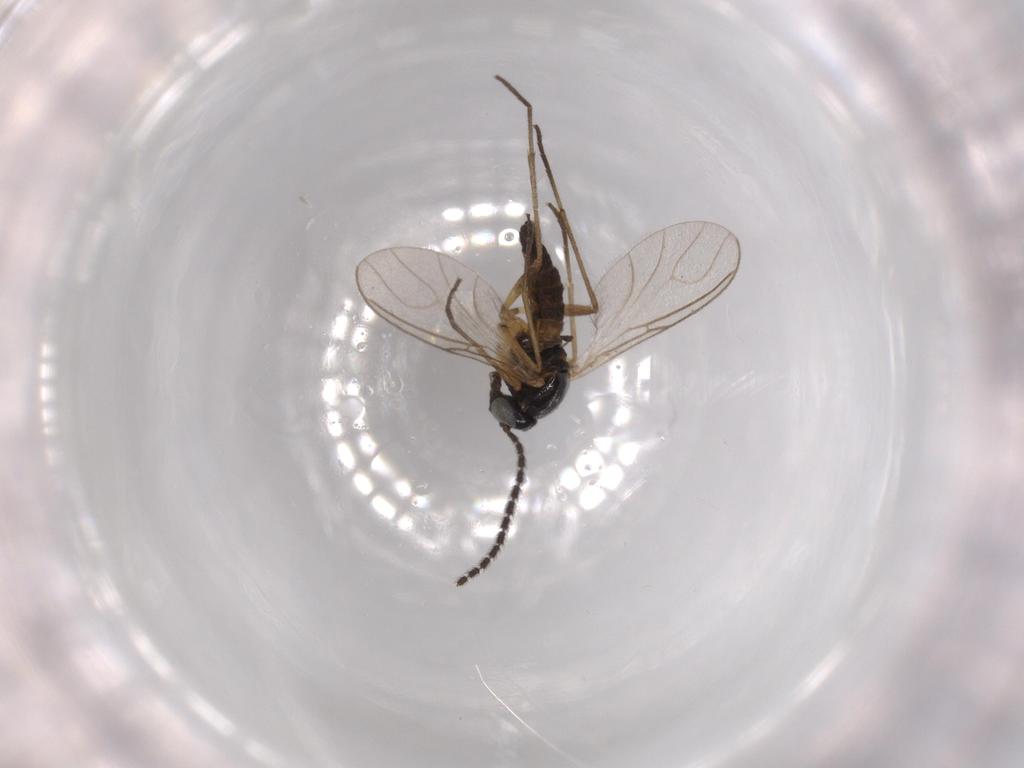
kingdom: Animalia
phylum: Arthropoda
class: Insecta
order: Diptera
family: Sciaridae
